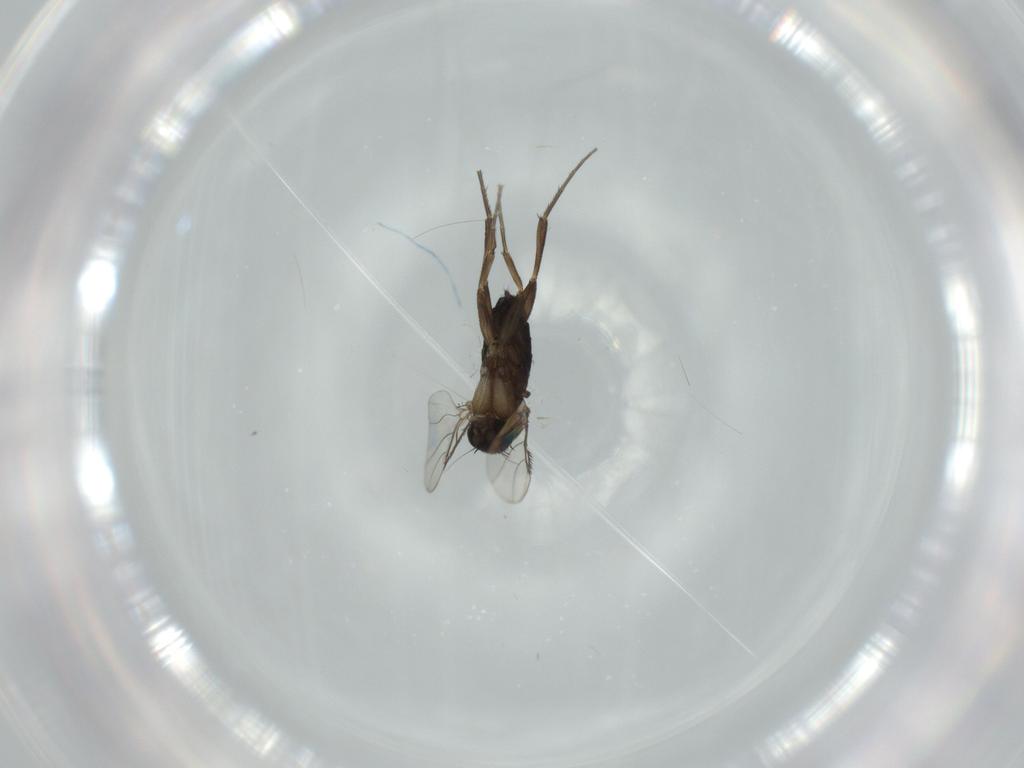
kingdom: Animalia
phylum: Arthropoda
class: Insecta
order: Diptera
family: Phoridae
